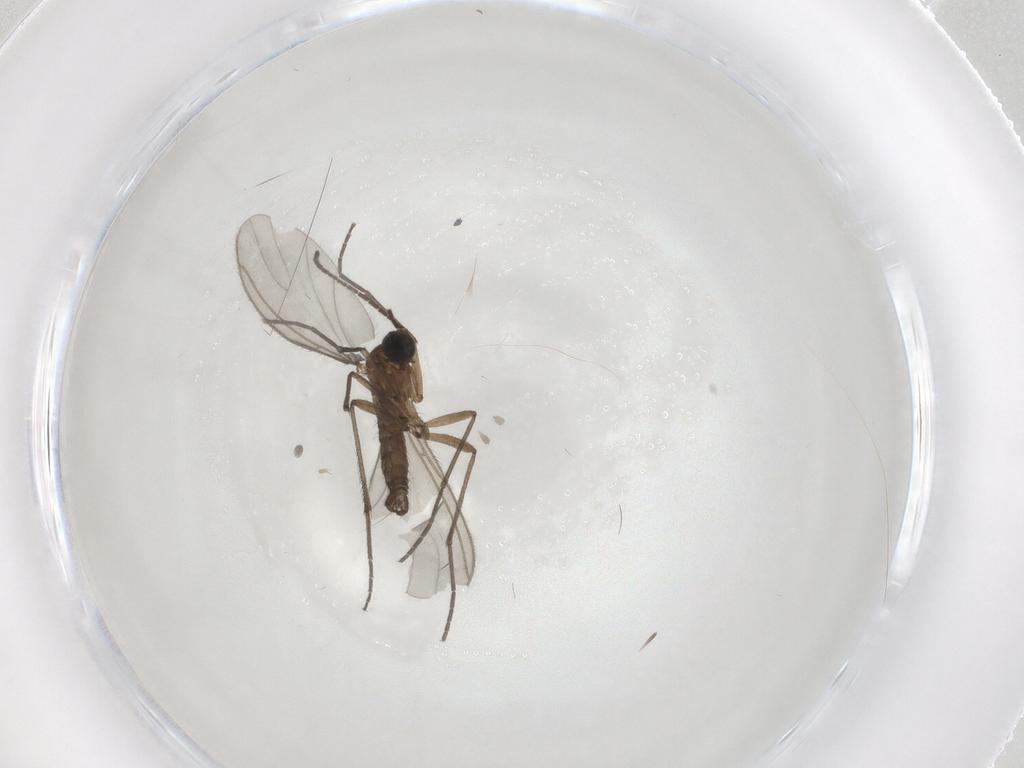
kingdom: Animalia
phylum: Arthropoda
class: Insecta
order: Diptera
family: Sciaridae
